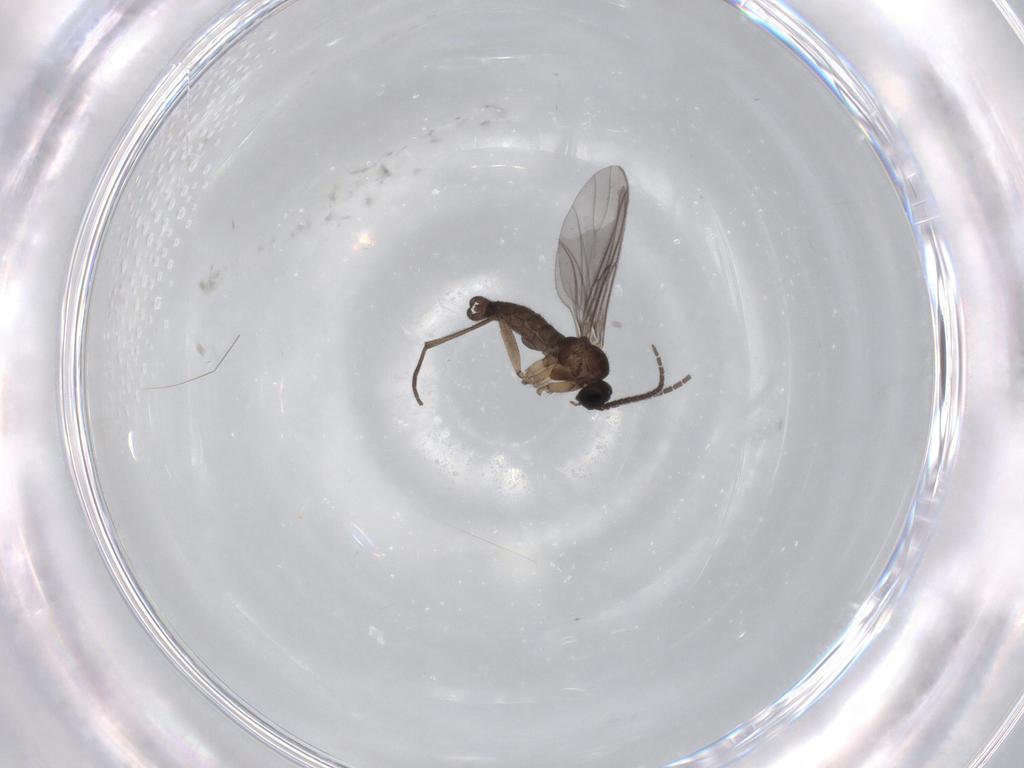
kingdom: Animalia
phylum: Arthropoda
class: Insecta
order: Diptera
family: Sciaridae
